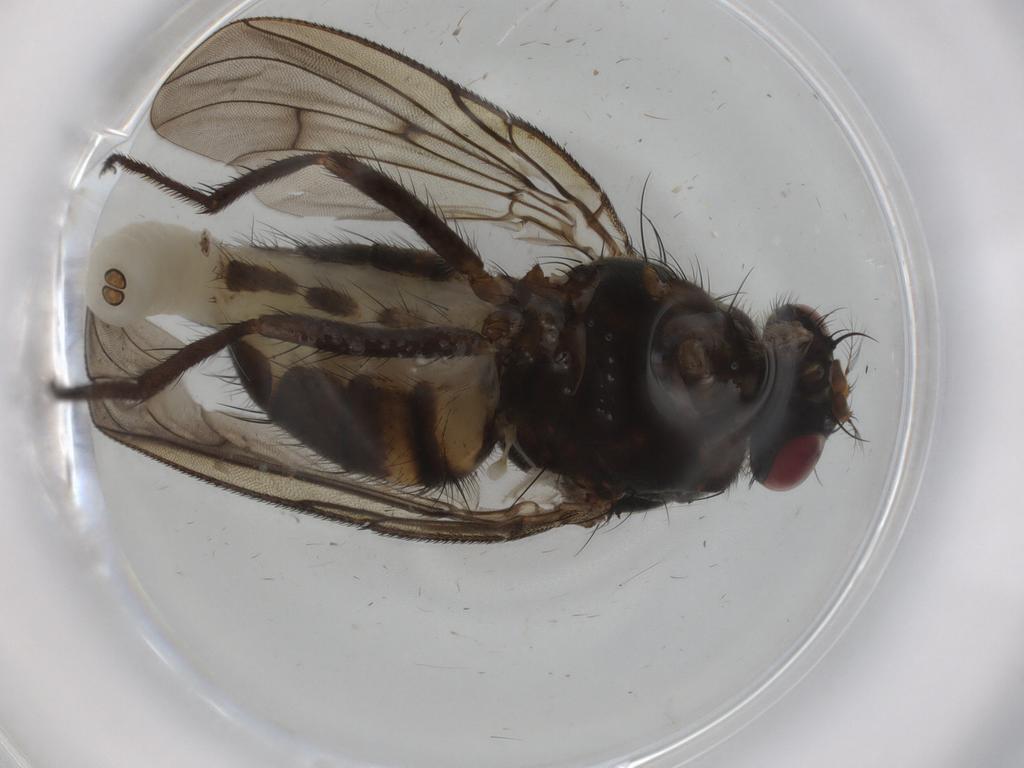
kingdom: Animalia
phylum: Arthropoda
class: Insecta
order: Diptera
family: Muscidae
